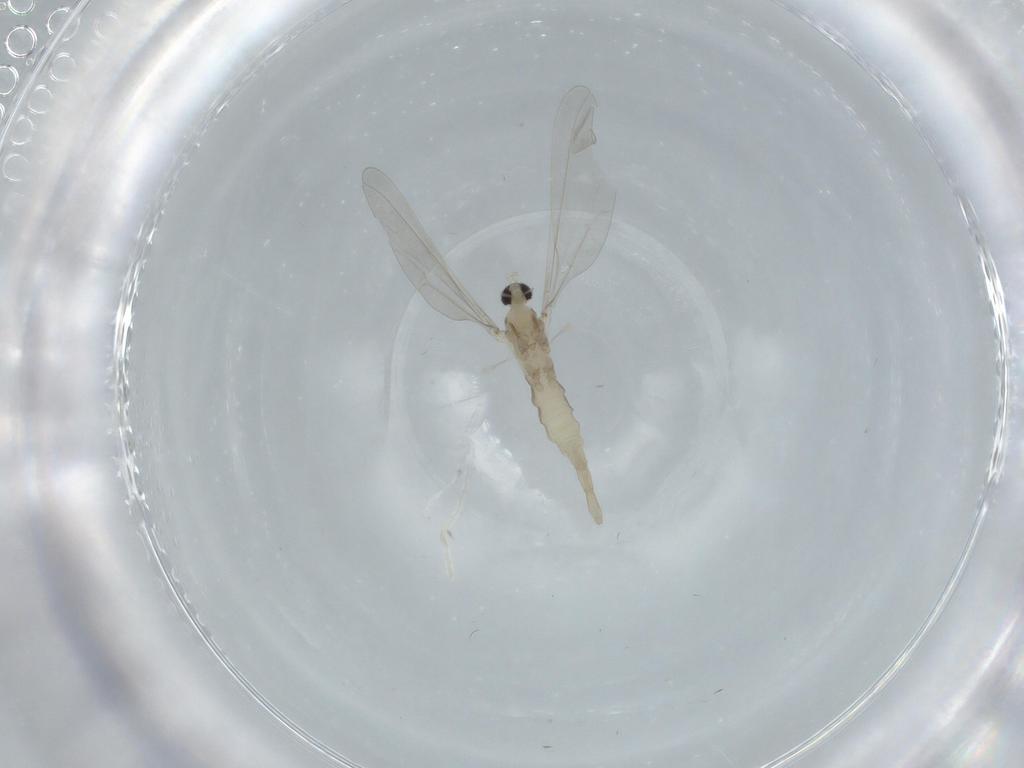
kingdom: Animalia
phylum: Arthropoda
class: Insecta
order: Diptera
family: Cecidomyiidae
